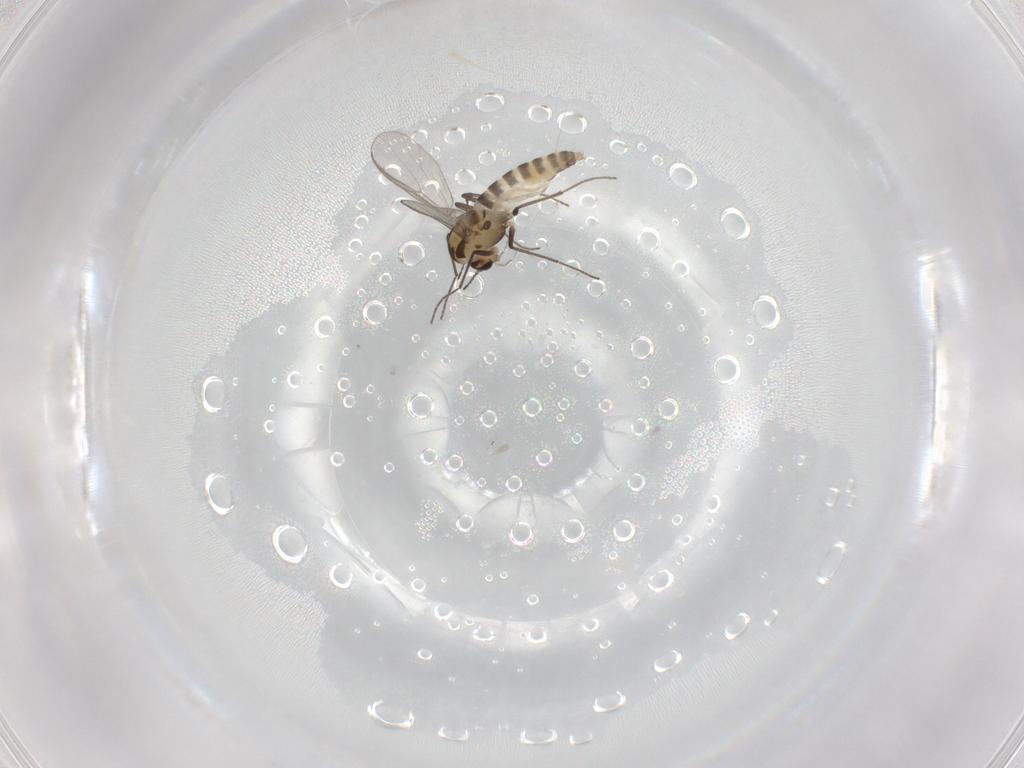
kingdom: Animalia
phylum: Arthropoda
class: Insecta
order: Diptera
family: Chironomidae
